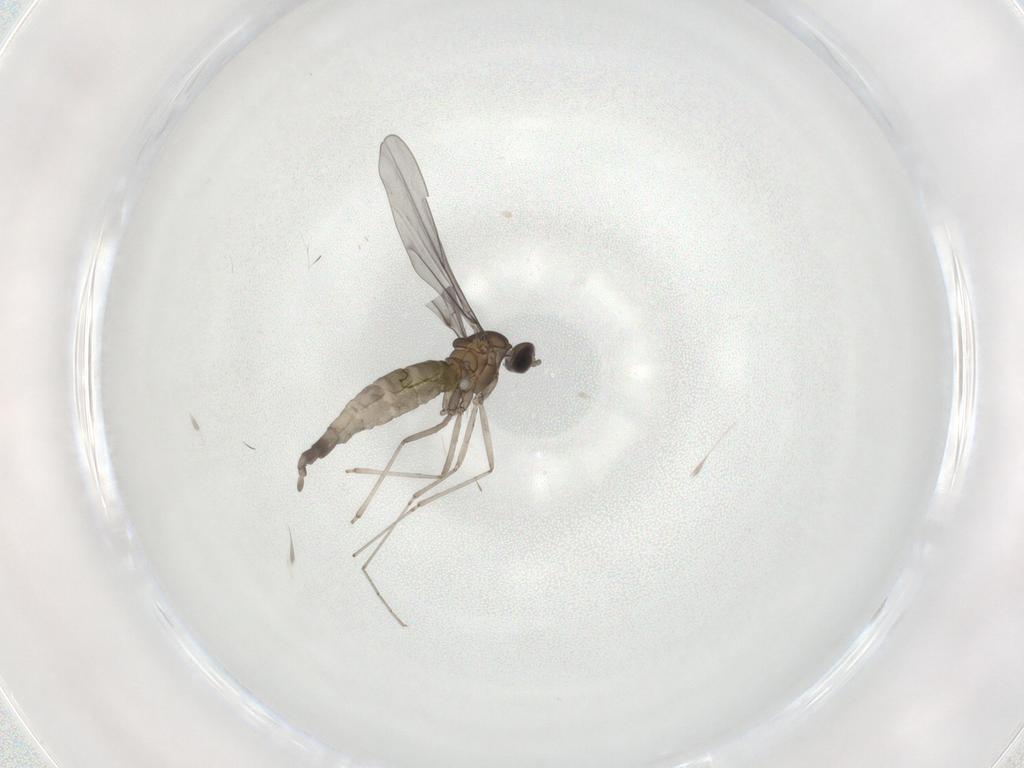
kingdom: Animalia
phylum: Arthropoda
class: Insecta
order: Diptera
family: Cecidomyiidae
